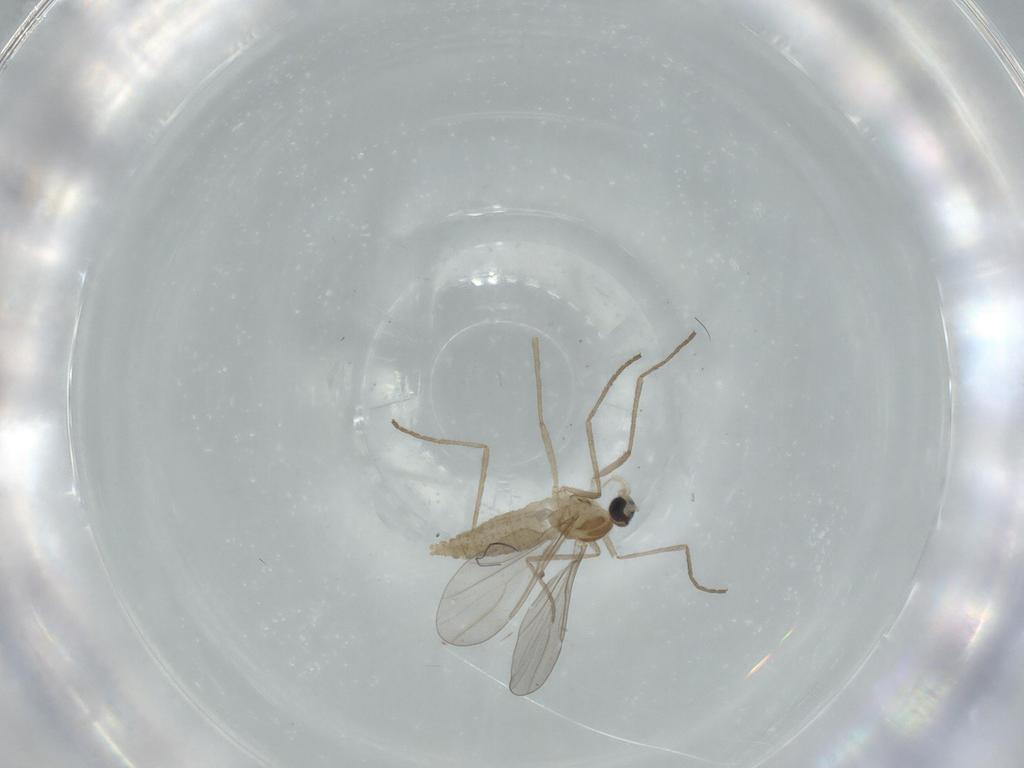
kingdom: Animalia
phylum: Arthropoda
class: Insecta
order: Diptera
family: Cecidomyiidae
